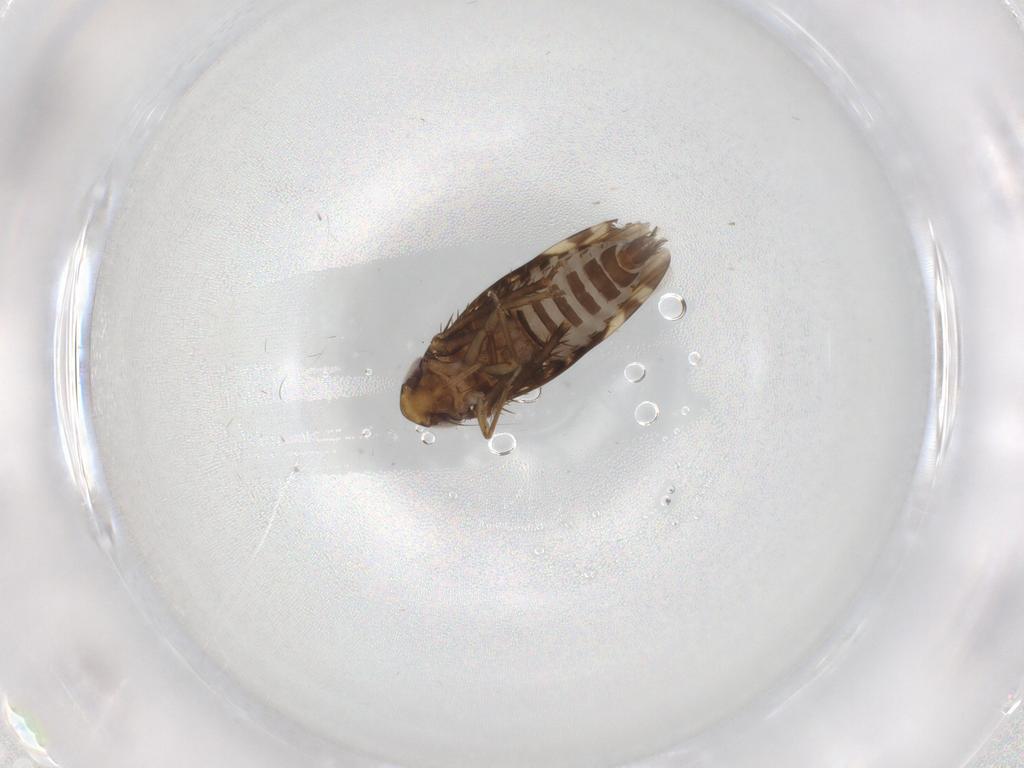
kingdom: Animalia
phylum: Arthropoda
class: Insecta
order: Hemiptera
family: Cicadellidae
